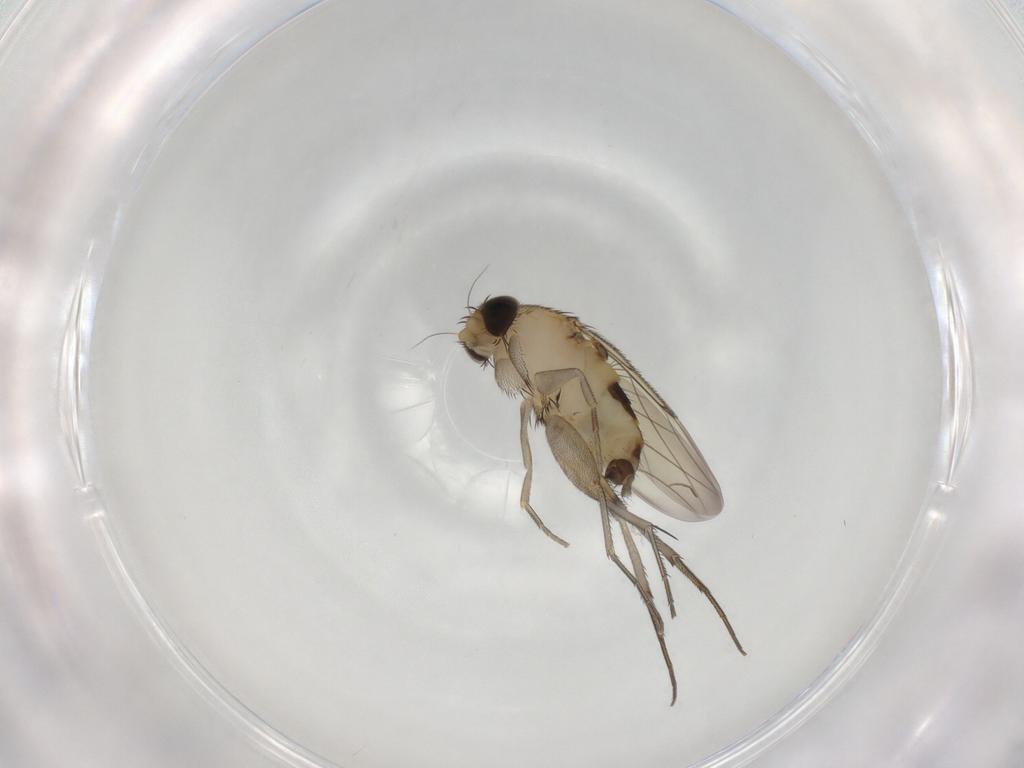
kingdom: Animalia
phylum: Arthropoda
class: Insecta
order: Diptera
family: Phoridae
